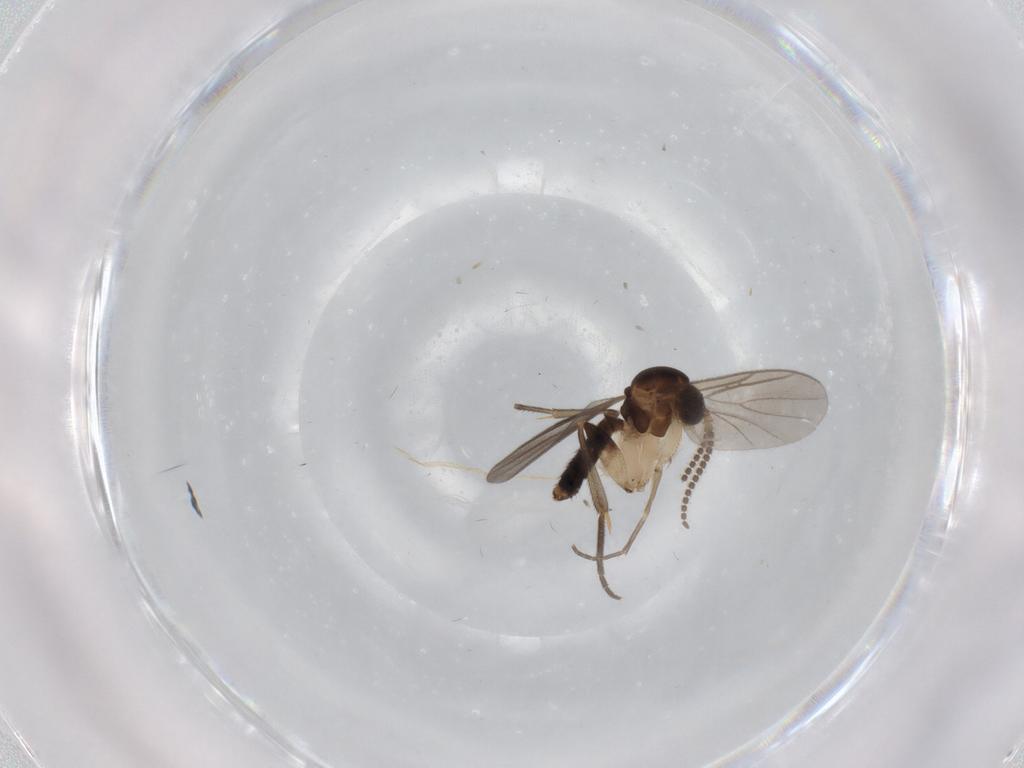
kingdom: Animalia
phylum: Arthropoda
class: Insecta
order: Diptera
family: Mycetophilidae
